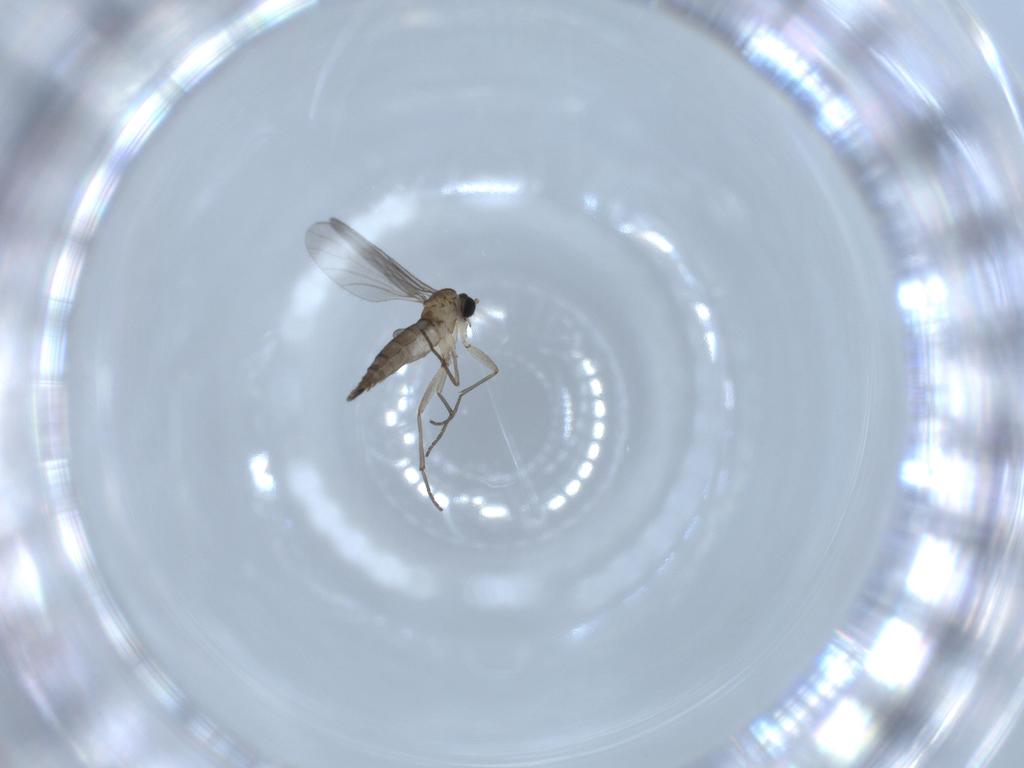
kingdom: Animalia
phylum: Arthropoda
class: Insecta
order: Diptera
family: Sciaridae
